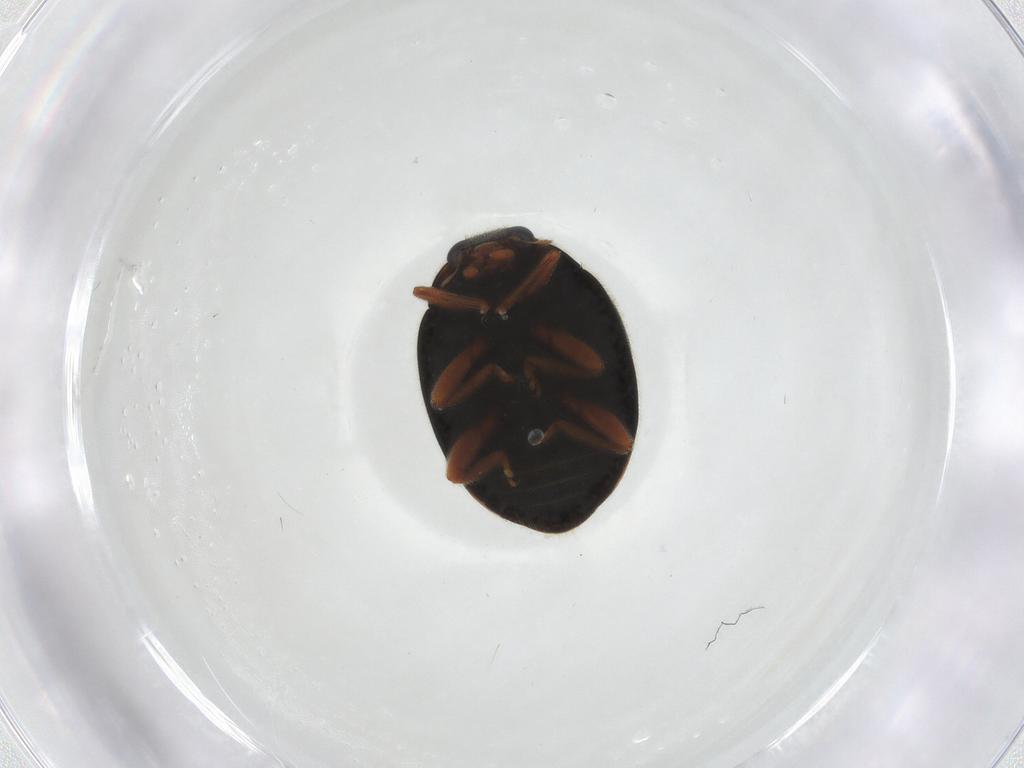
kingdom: Animalia
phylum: Arthropoda
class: Insecta
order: Coleoptera
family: Coccinellidae
